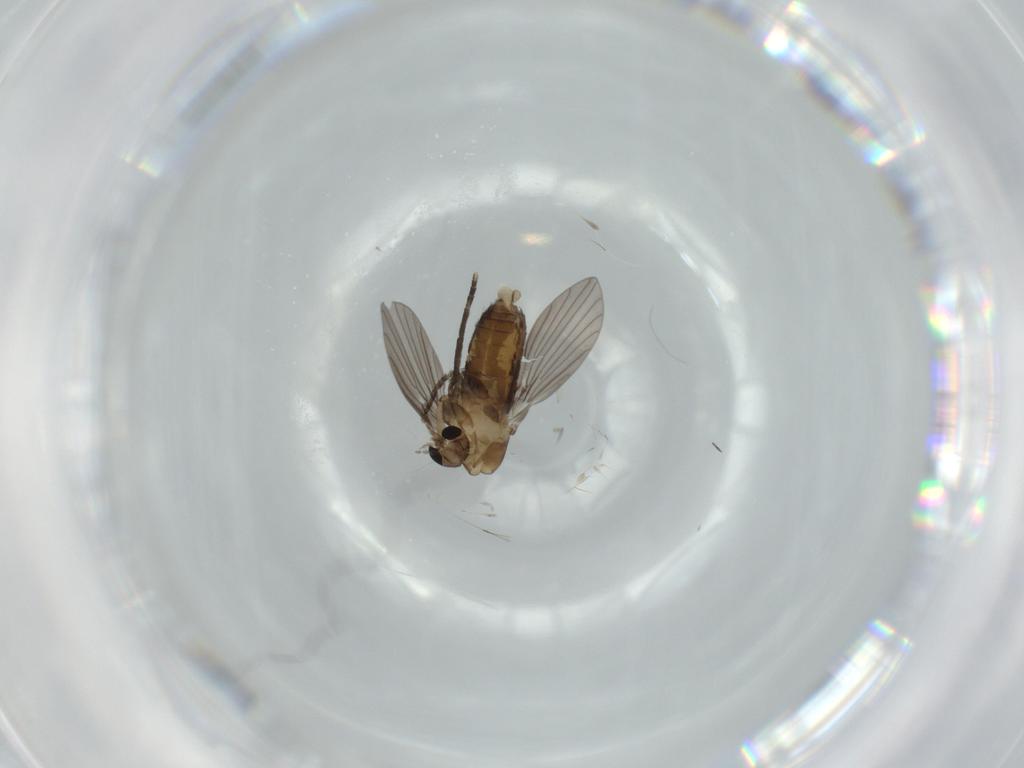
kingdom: Animalia
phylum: Arthropoda
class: Insecta
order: Diptera
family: Psychodidae
